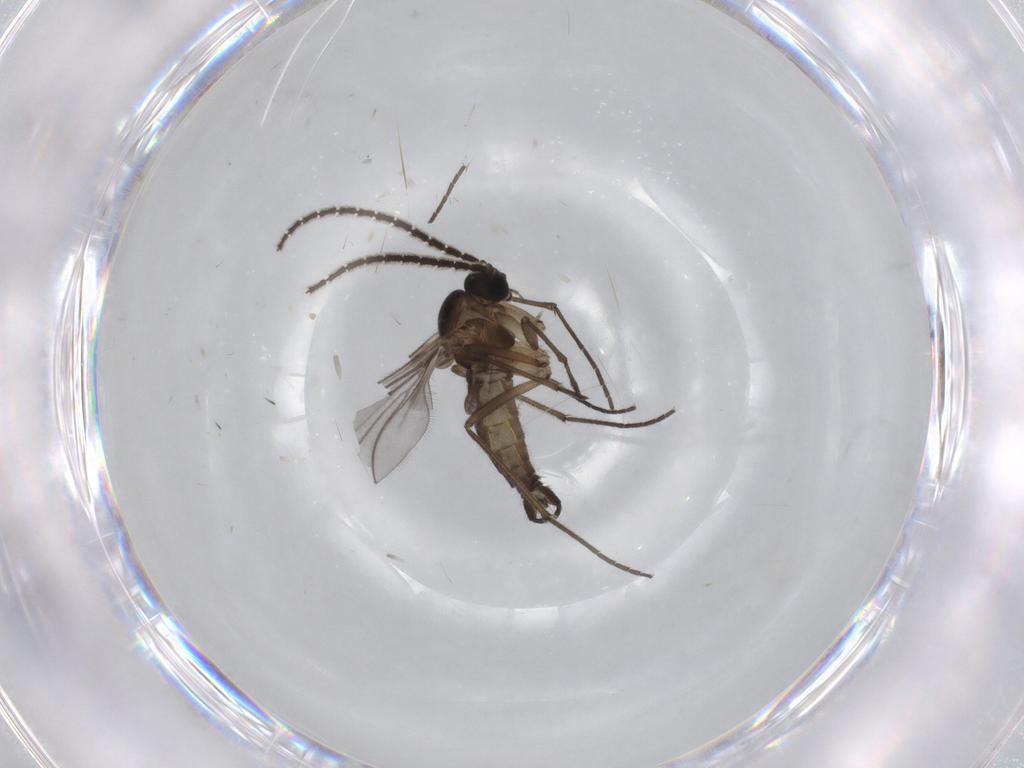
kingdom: Animalia
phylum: Arthropoda
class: Insecta
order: Diptera
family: Sciaridae
